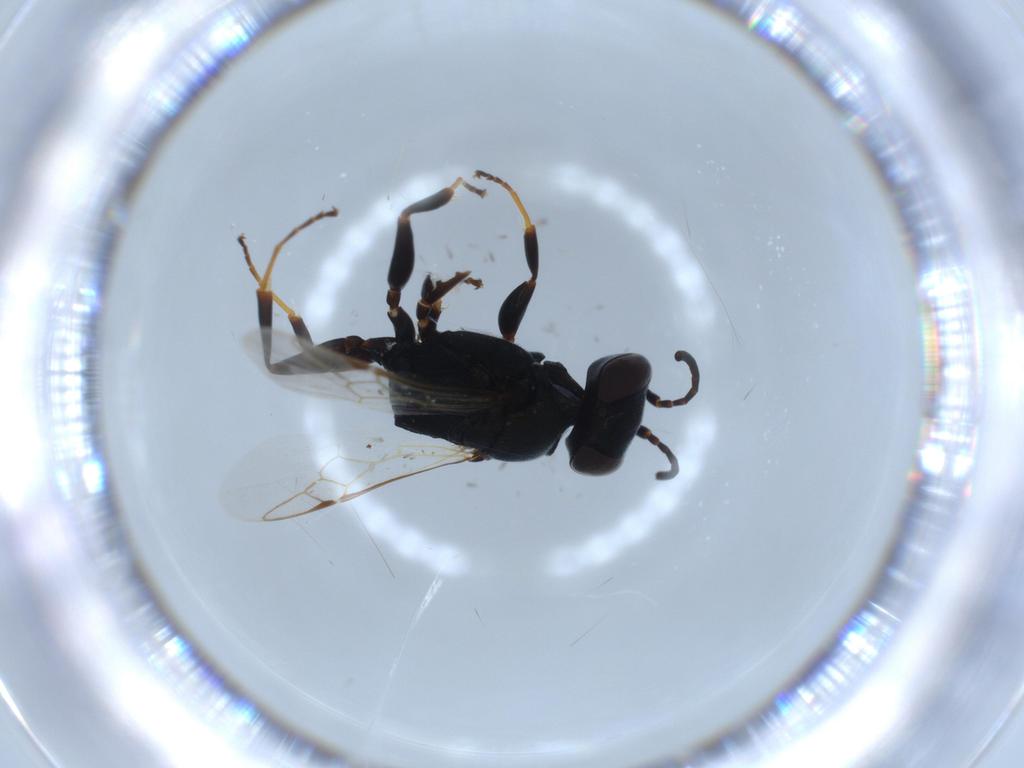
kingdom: Animalia
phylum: Arthropoda
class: Insecta
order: Hymenoptera
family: Crabronidae
